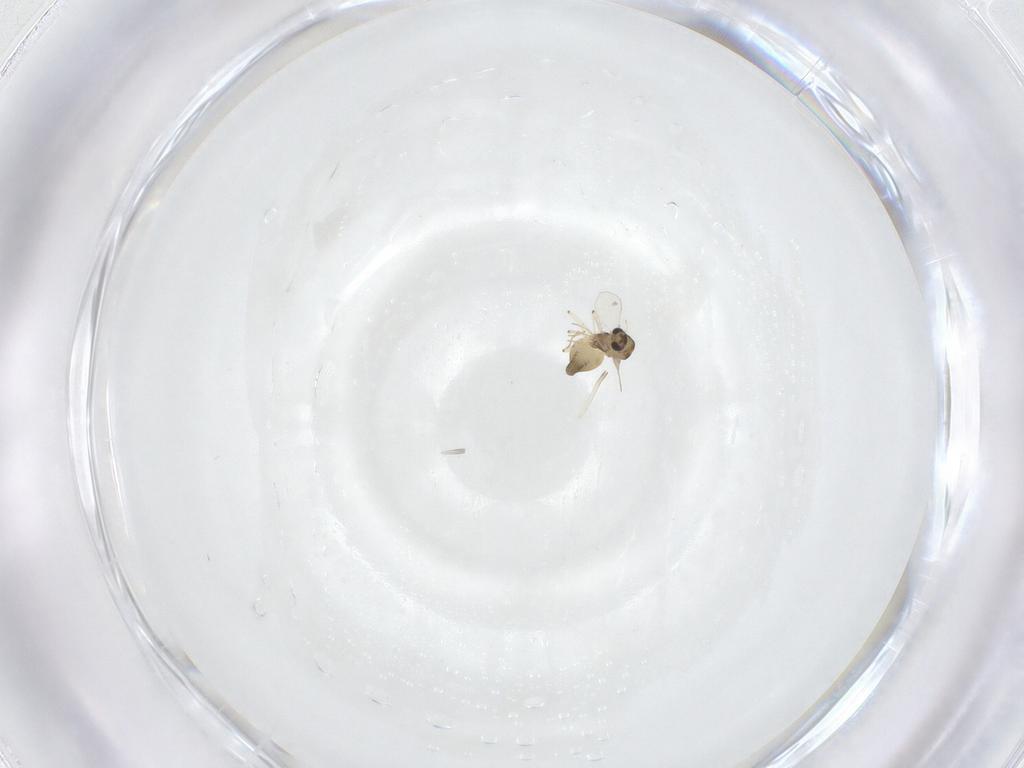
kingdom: Animalia
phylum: Arthropoda
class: Insecta
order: Diptera
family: Chironomidae
